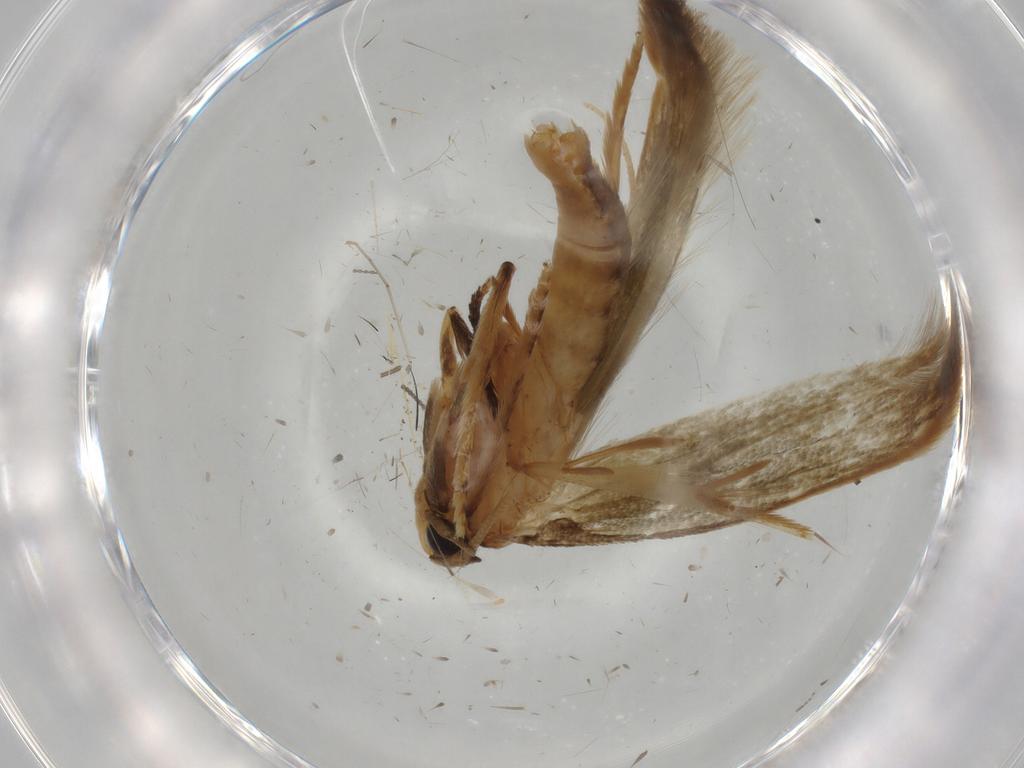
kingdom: Animalia
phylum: Arthropoda
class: Insecta
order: Lepidoptera
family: Tineidae
